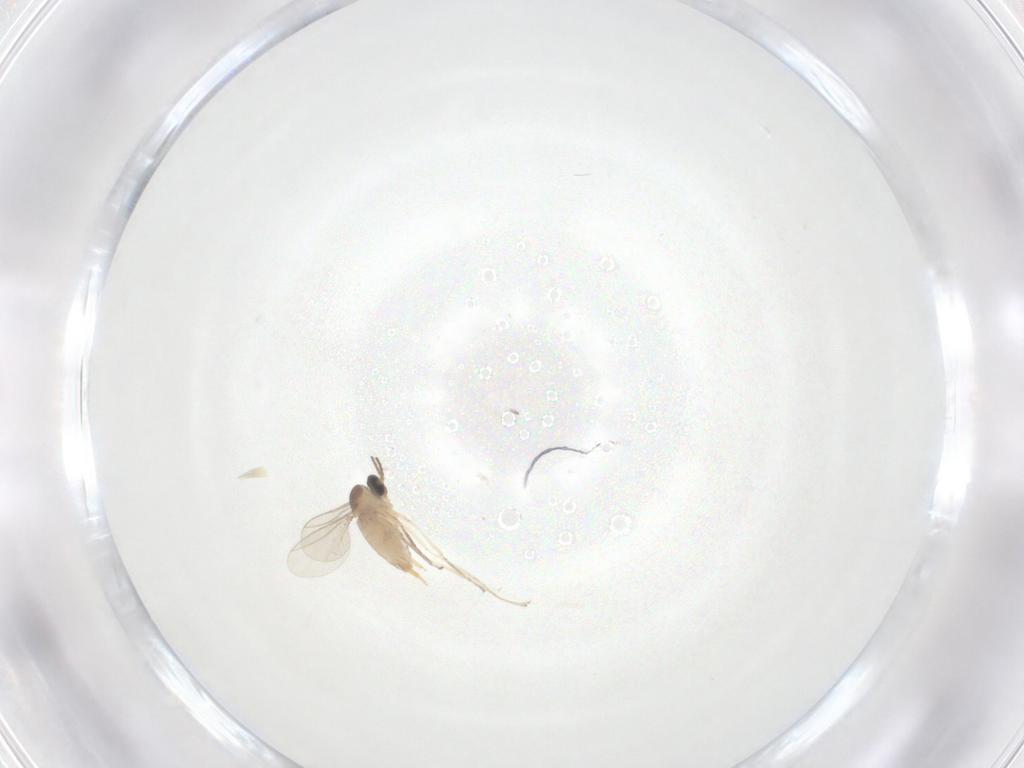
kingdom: Animalia
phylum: Arthropoda
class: Insecta
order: Diptera
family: Cecidomyiidae
